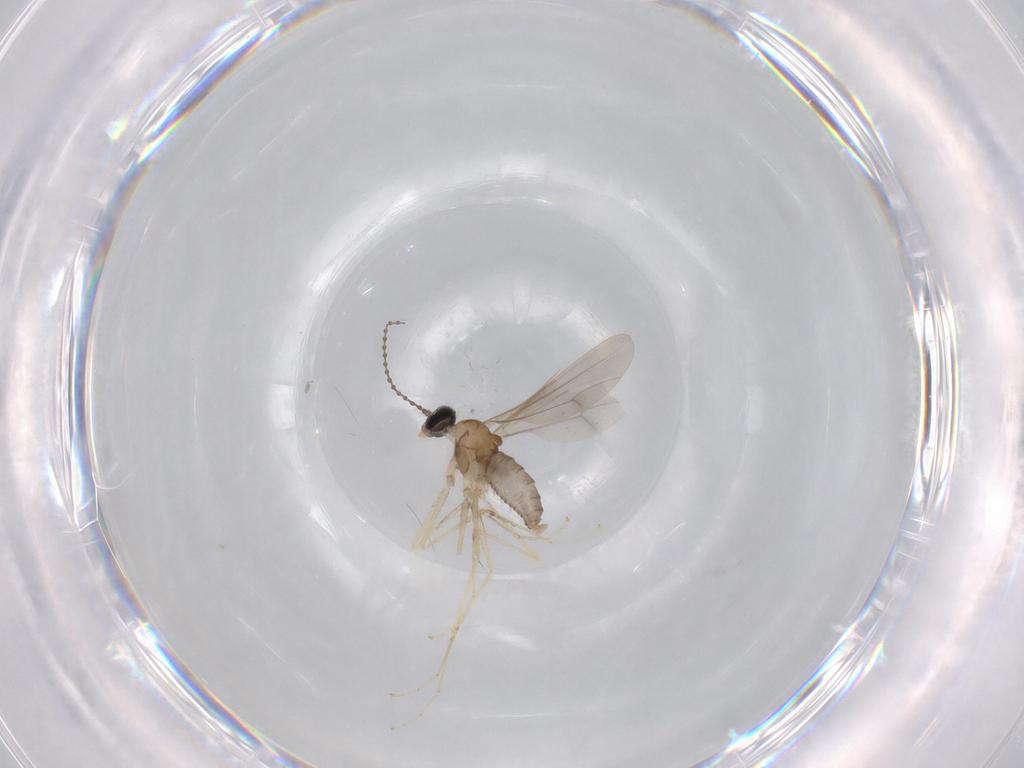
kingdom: Animalia
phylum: Arthropoda
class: Insecta
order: Diptera
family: Cecidomyiidae
